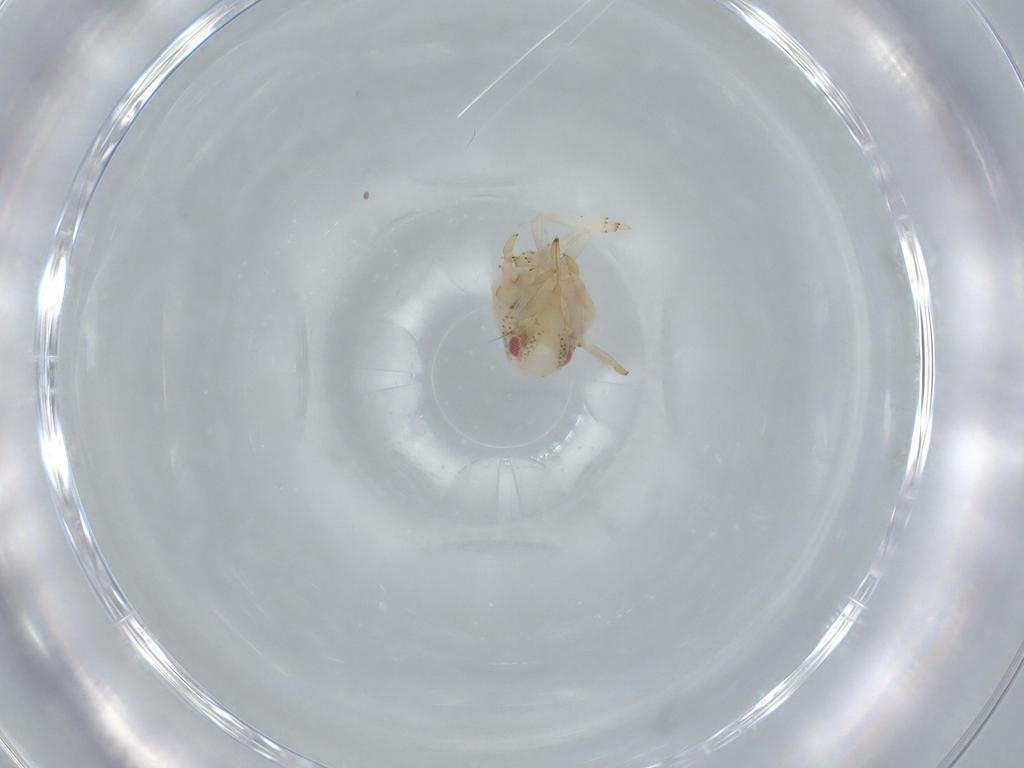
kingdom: Animalia
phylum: Arthropoda
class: Insecta
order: Hemiptera
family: Acanaloniidae
